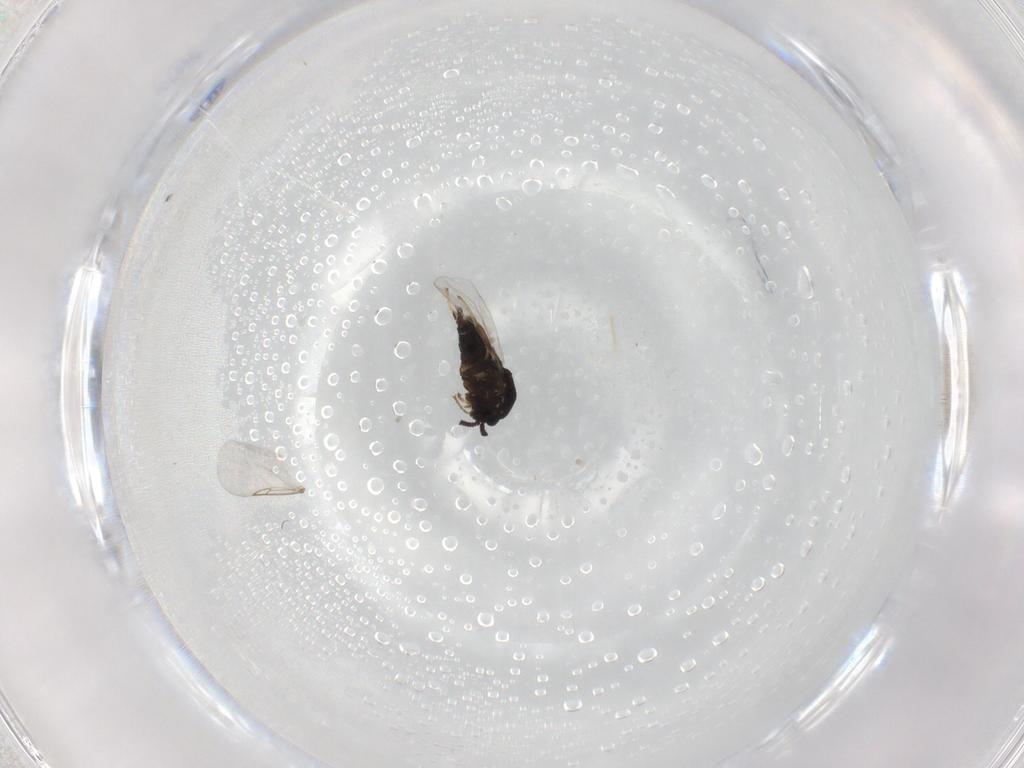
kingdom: Animalia
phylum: Arthropoda
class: Insecta
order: Diptera
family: Scatopsidae
